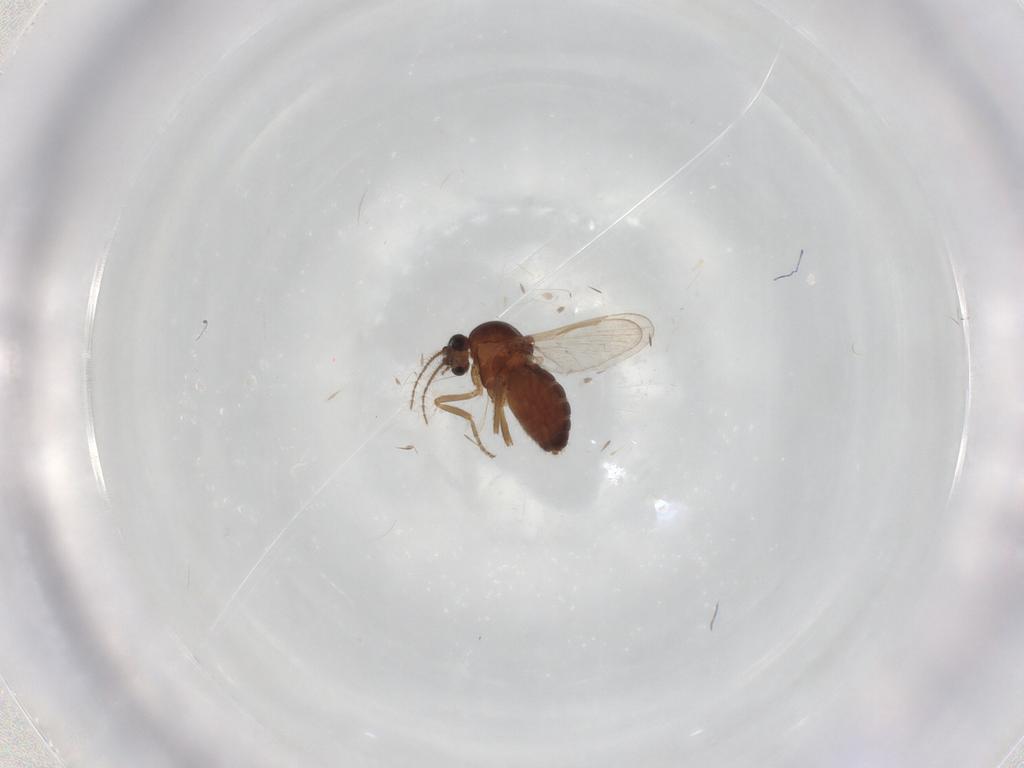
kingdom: Animalia
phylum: Arthropoda
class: Insecta
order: Diptera
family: Ceratopogonidae
